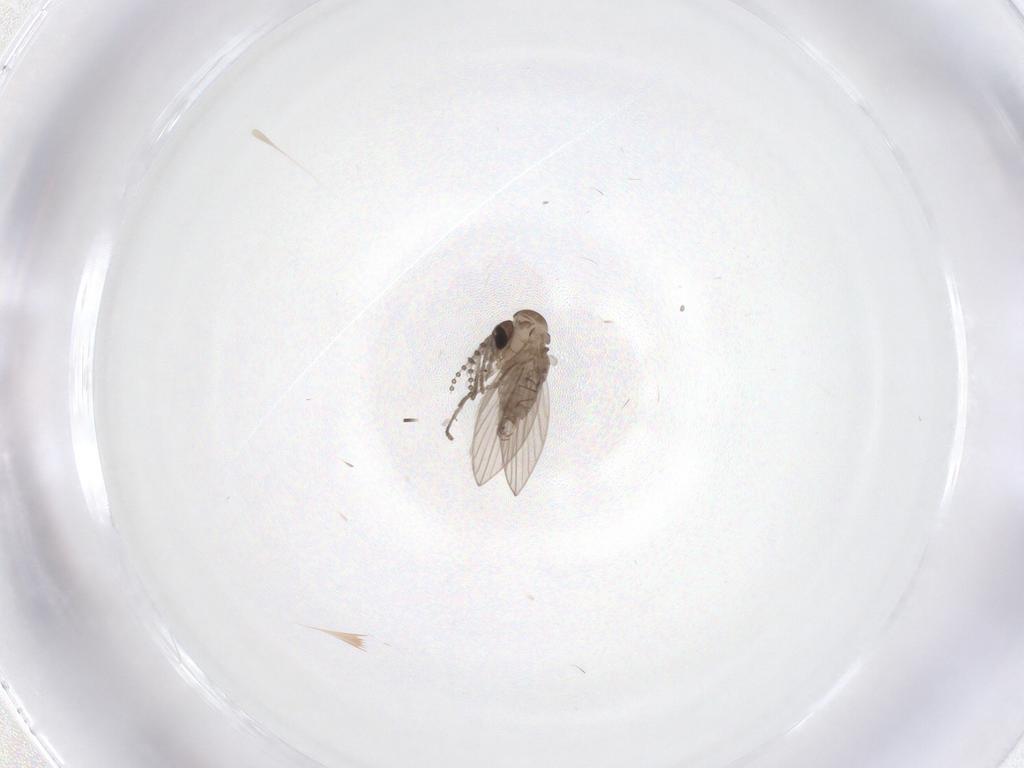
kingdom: Animalia
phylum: Arthropoda
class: Insecta
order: Diptera
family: Psychodidae
